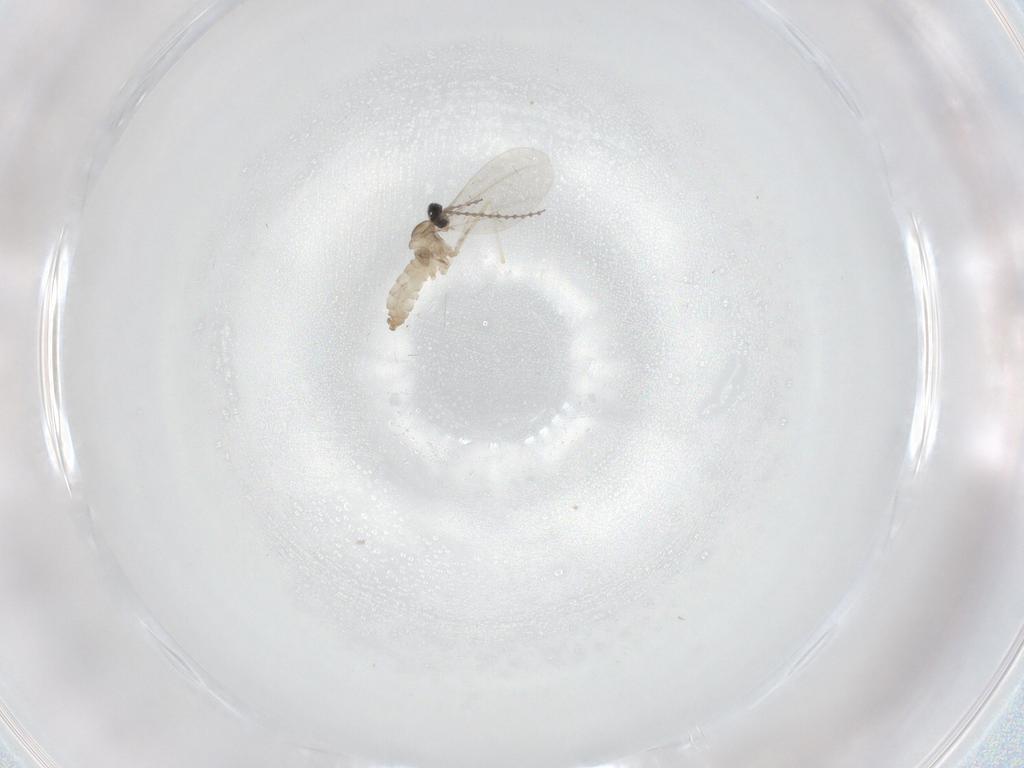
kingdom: Animalia
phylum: Arthropoda
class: Insecta
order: Diptera
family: Cecidomyiidae
